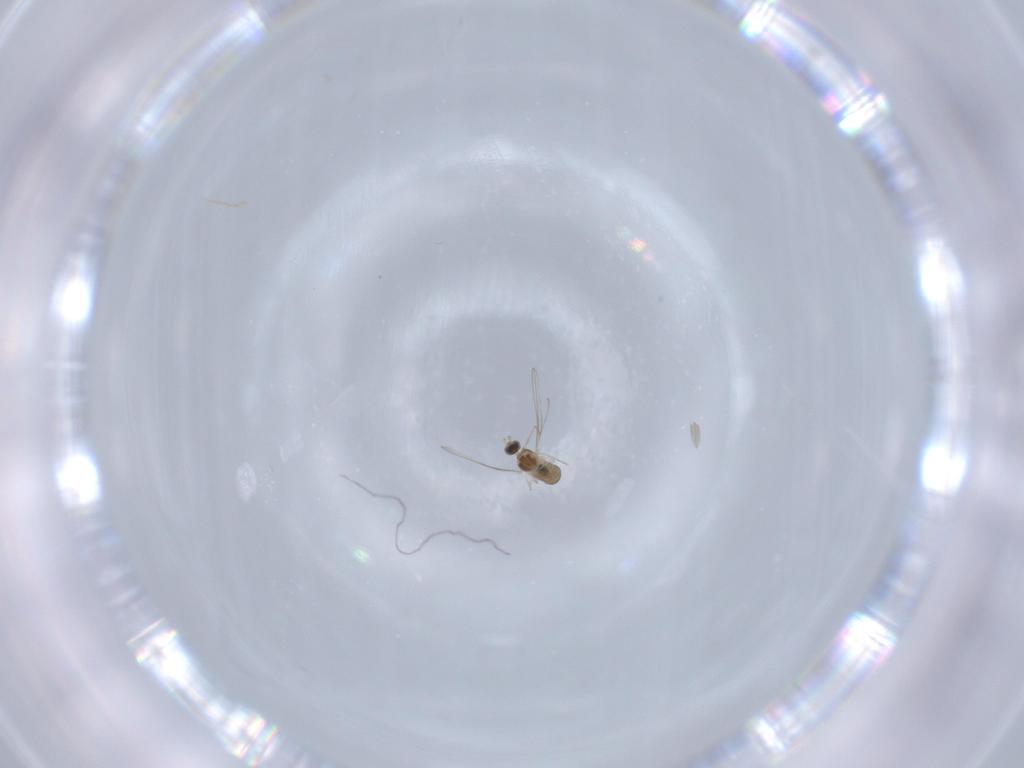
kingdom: Animalia
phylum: Arthropoda
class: Insecta
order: Diptera
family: Cecidomyiidae
